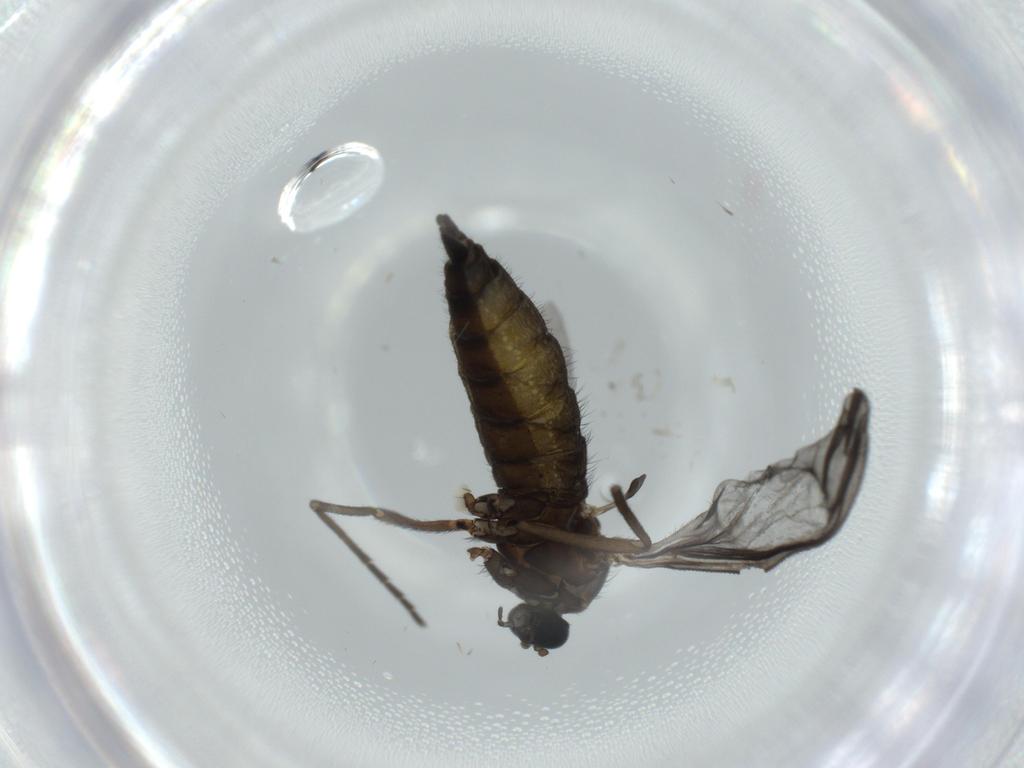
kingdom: Animalia
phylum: Arthropoda
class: Insecta
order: Diptera
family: Sciaridae
